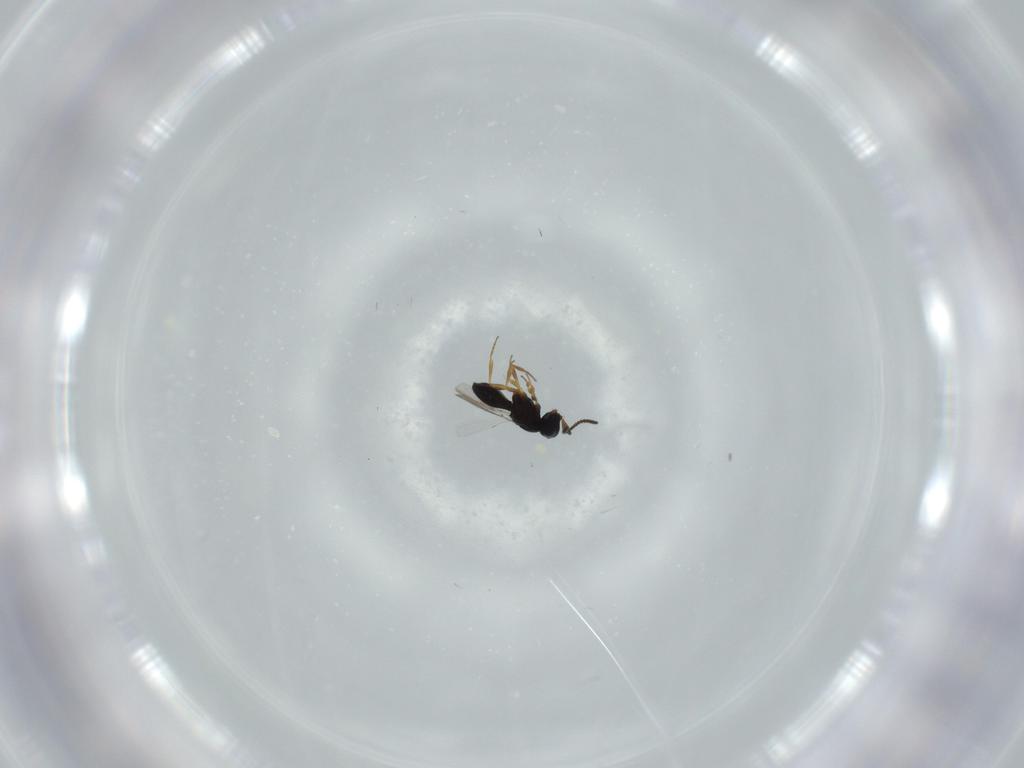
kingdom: Animalia
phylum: Arthropoda
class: Insecta
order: Hymenoptera
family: Scelionidae
